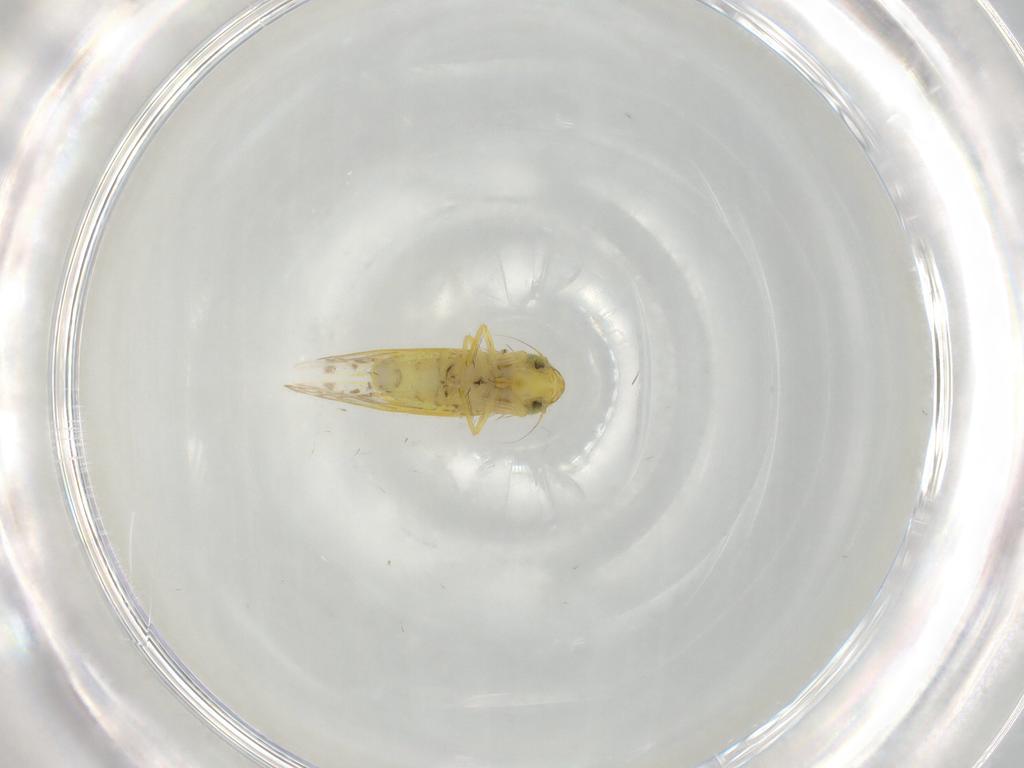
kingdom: Animalia
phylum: Arthropoda
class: Insecta
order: Hemiptera
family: Cicadellidae
